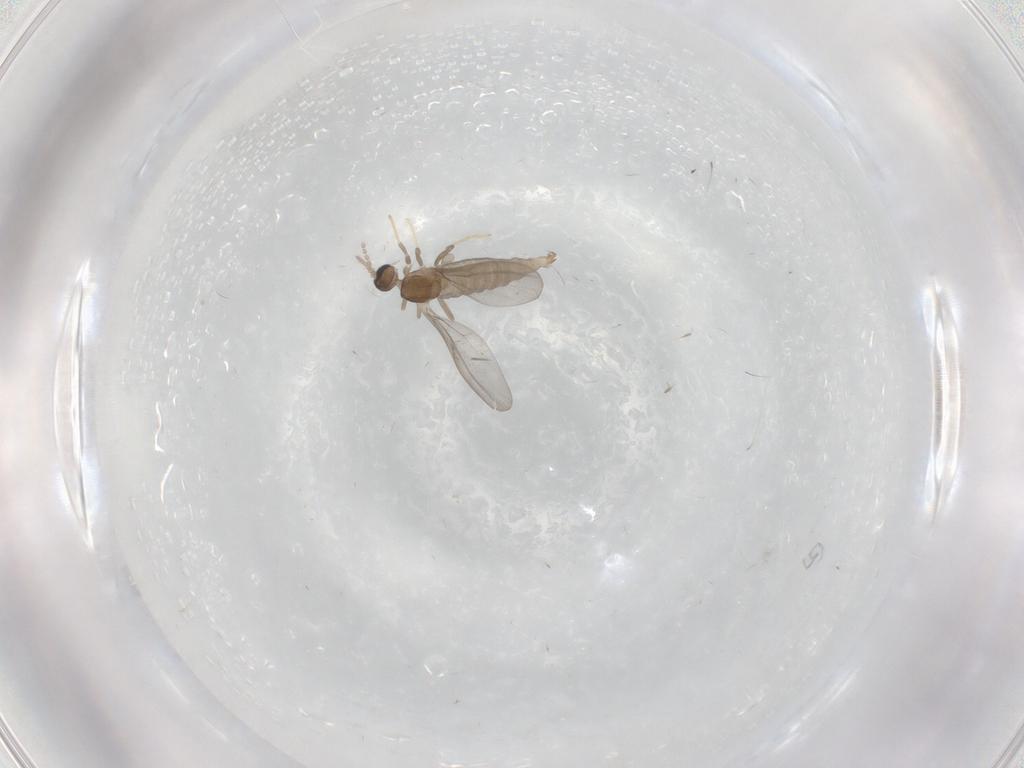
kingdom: Animalia
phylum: Arthropoda
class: Insecta
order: Diptera
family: Cecidomyiidae
